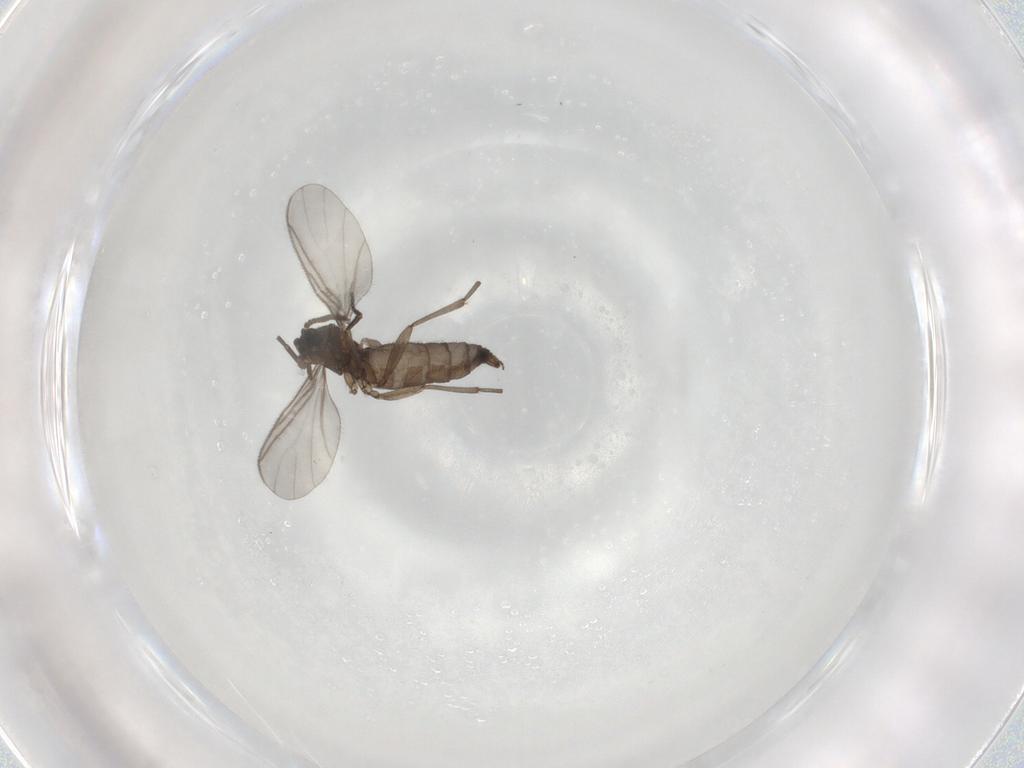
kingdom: Animalia
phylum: Arthropoda
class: Insecta
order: Diptera
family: Sciaridae
